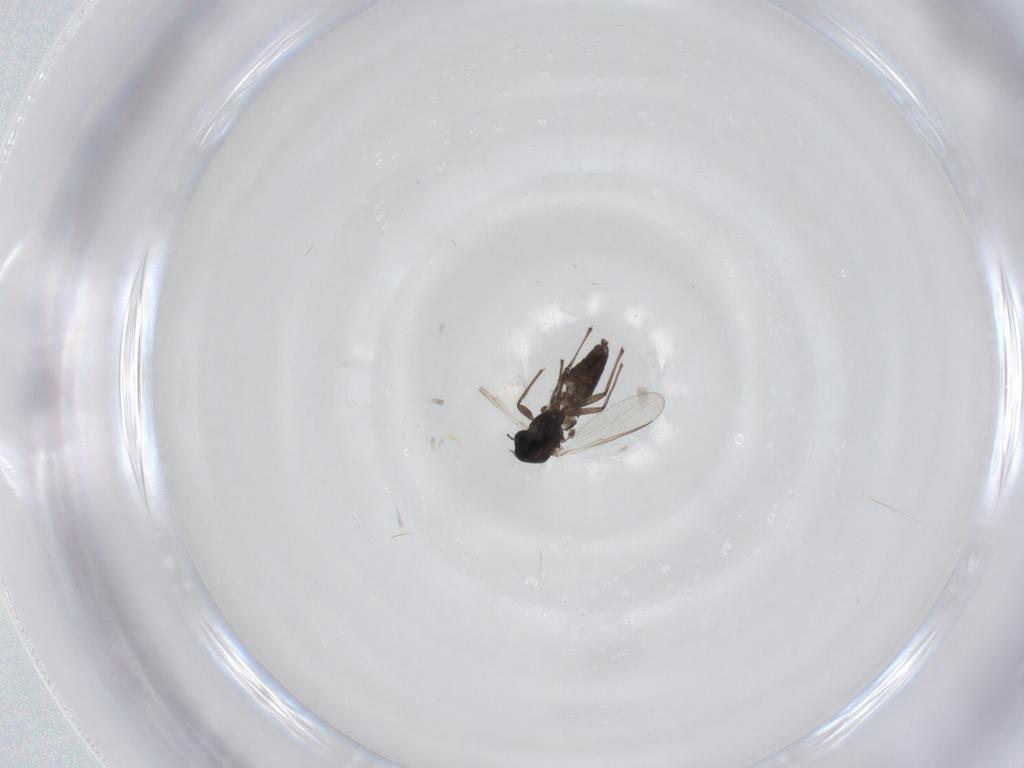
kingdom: Animalia
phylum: Arthropoda
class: Insecta
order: Diptera
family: Chironomidae
